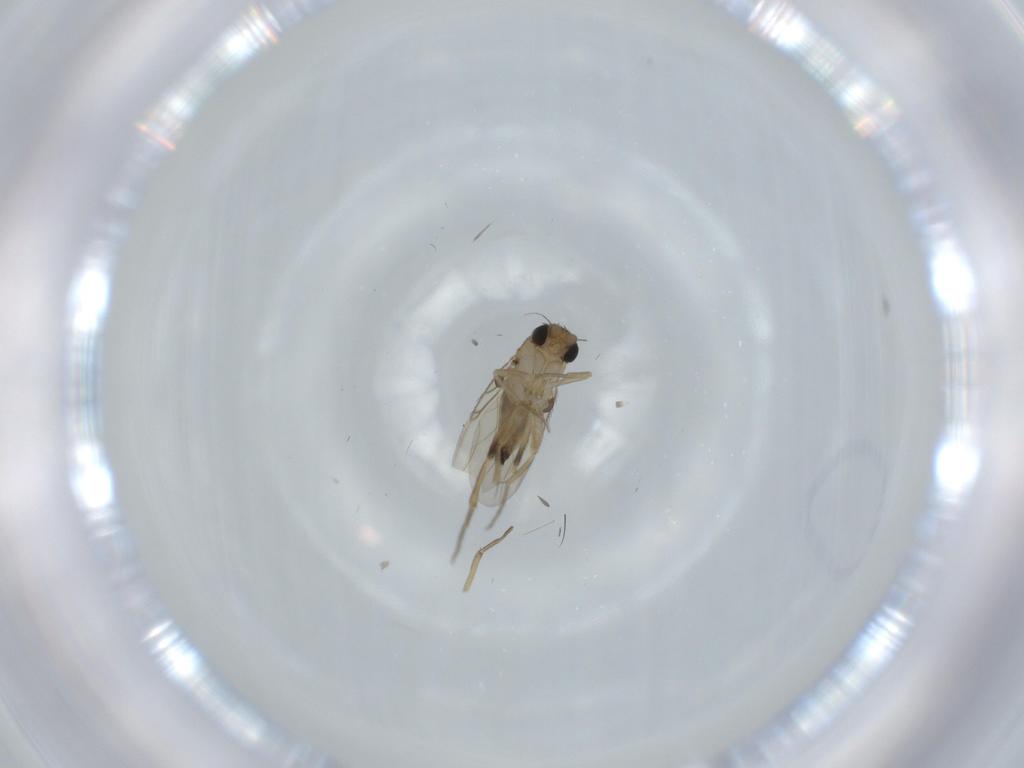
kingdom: Animalia
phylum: Arthropoda
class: Insecta
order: Diptera
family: Phoridae
